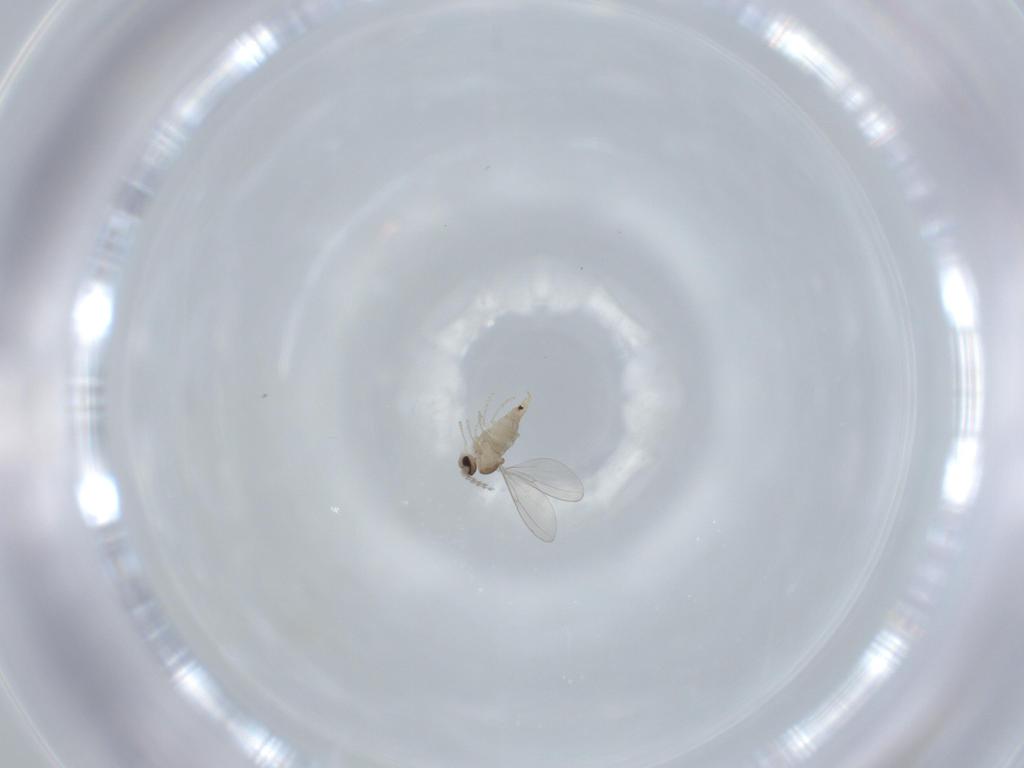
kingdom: Animalia
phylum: Arthropoda
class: Insecta
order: Diptera
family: Cecidomyiidae
